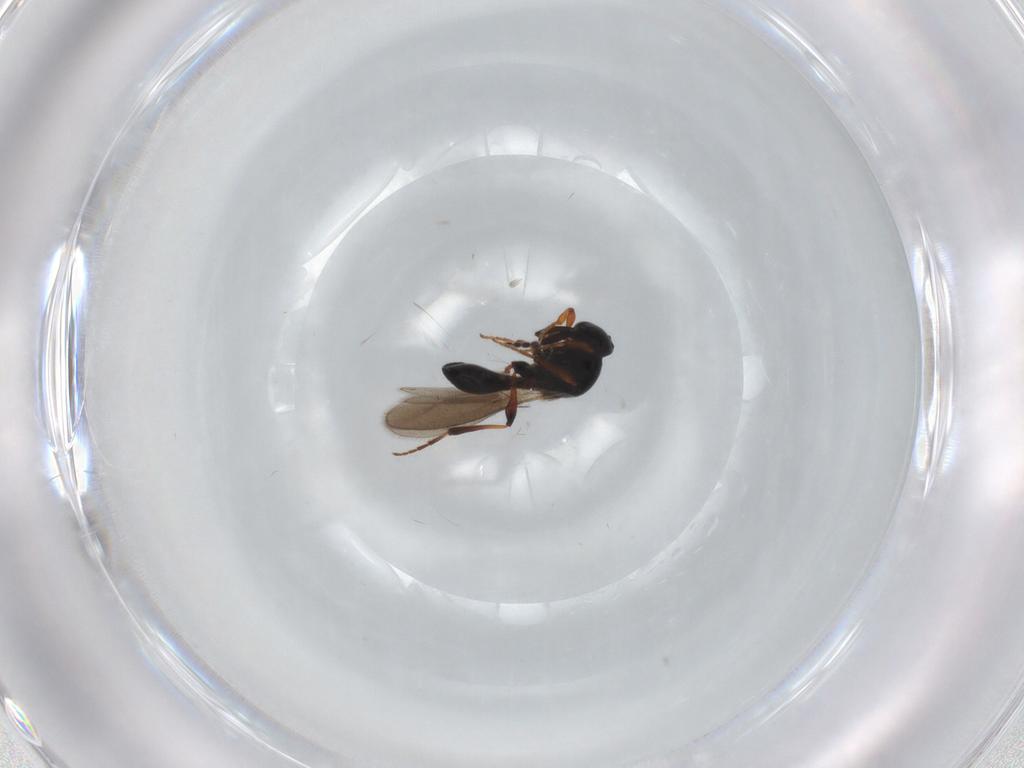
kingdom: Animalia
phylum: Arthropoda
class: Insecta
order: Hymenoptera
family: Platygastridae
